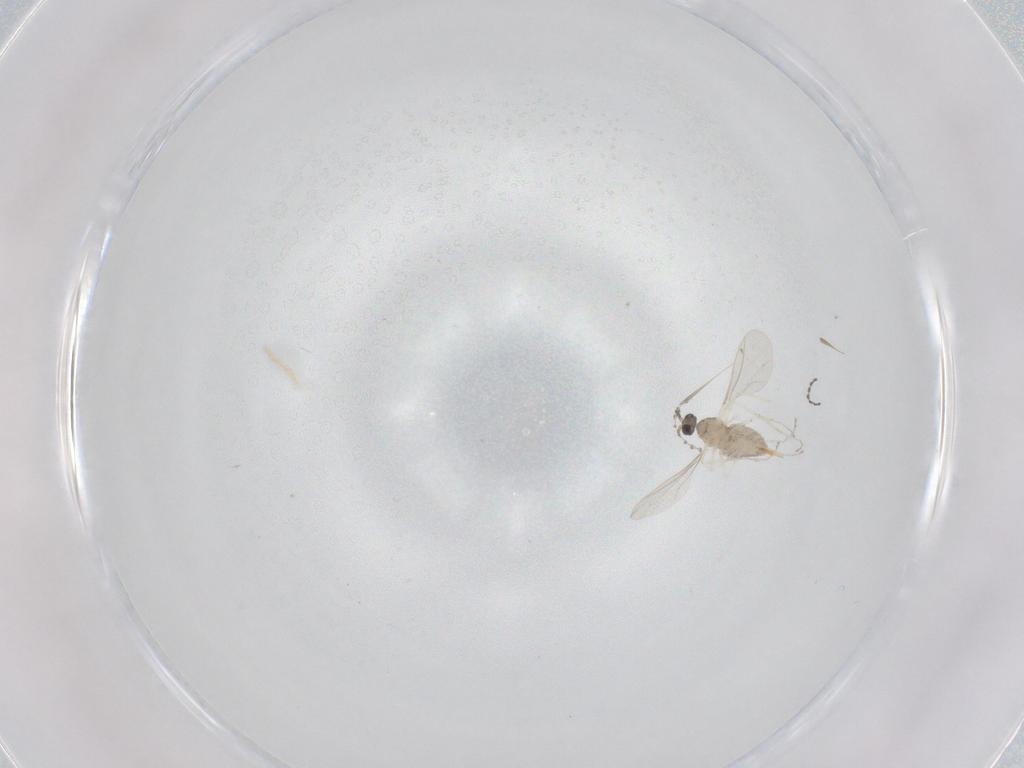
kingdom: Animalia
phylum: Arthropoda
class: Insecta
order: Diptera
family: Cecidomyiidae
